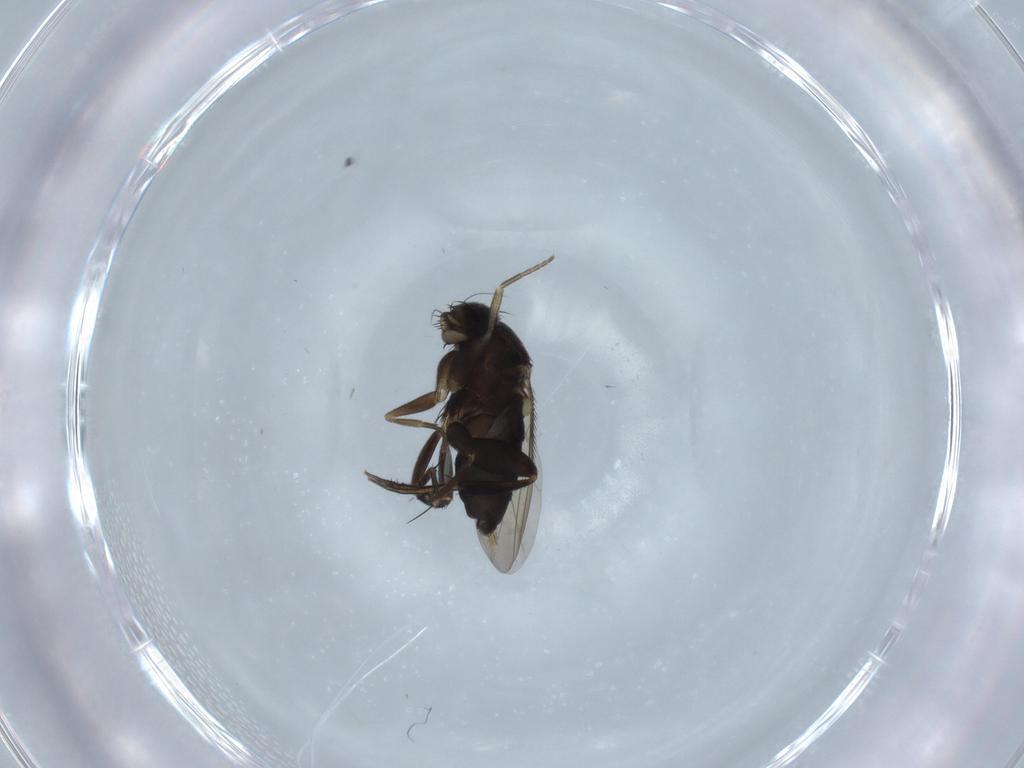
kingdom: Animalia
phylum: Arthropoda
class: Insecta
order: Diptera
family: Phoridae
